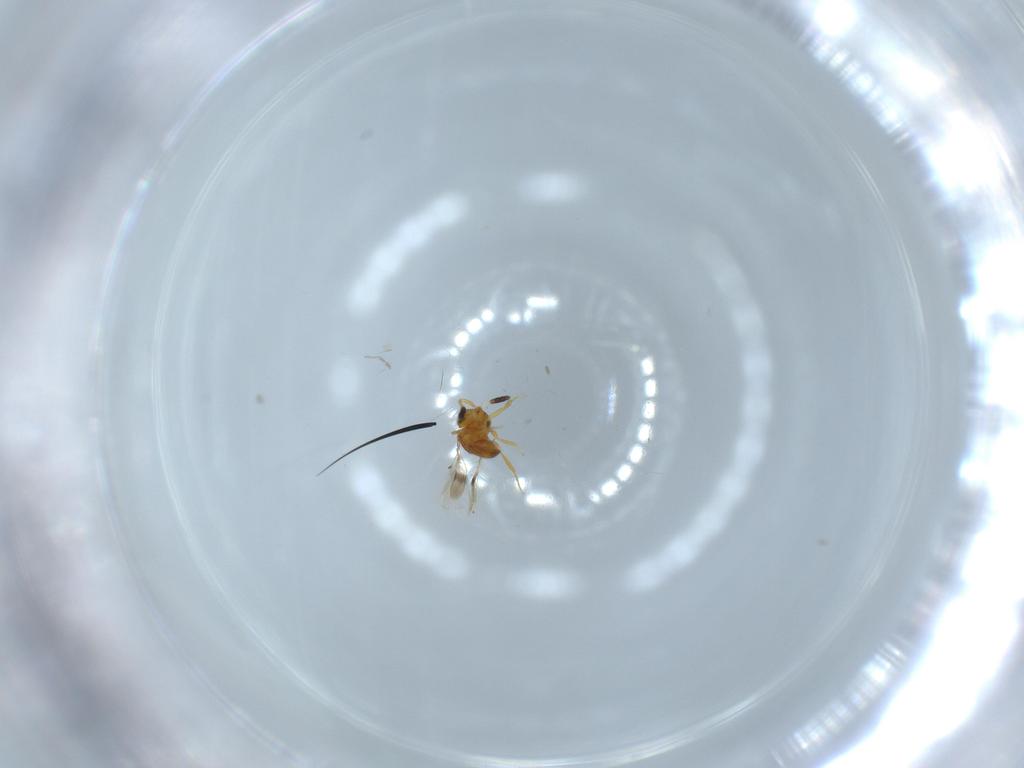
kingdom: Animalia
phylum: Arthropoda
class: Insecta
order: Hymenoptera
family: Scelionidae
